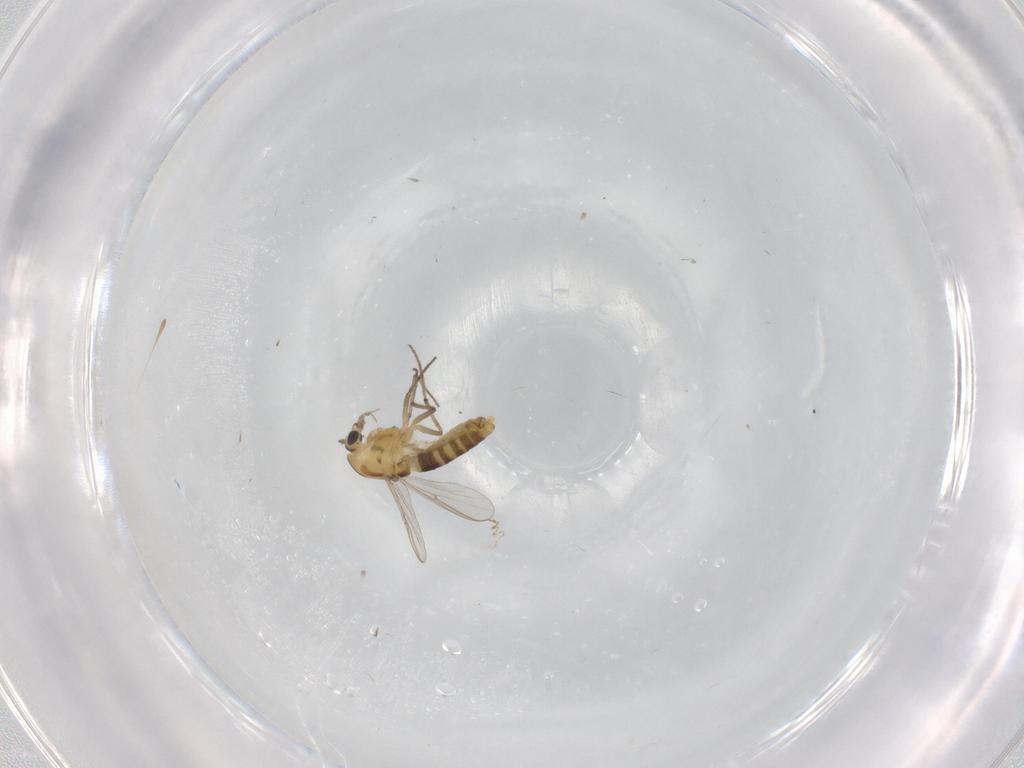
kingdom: Animalia
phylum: Arthropoda
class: Insecta
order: Diptera
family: Chironomidae
